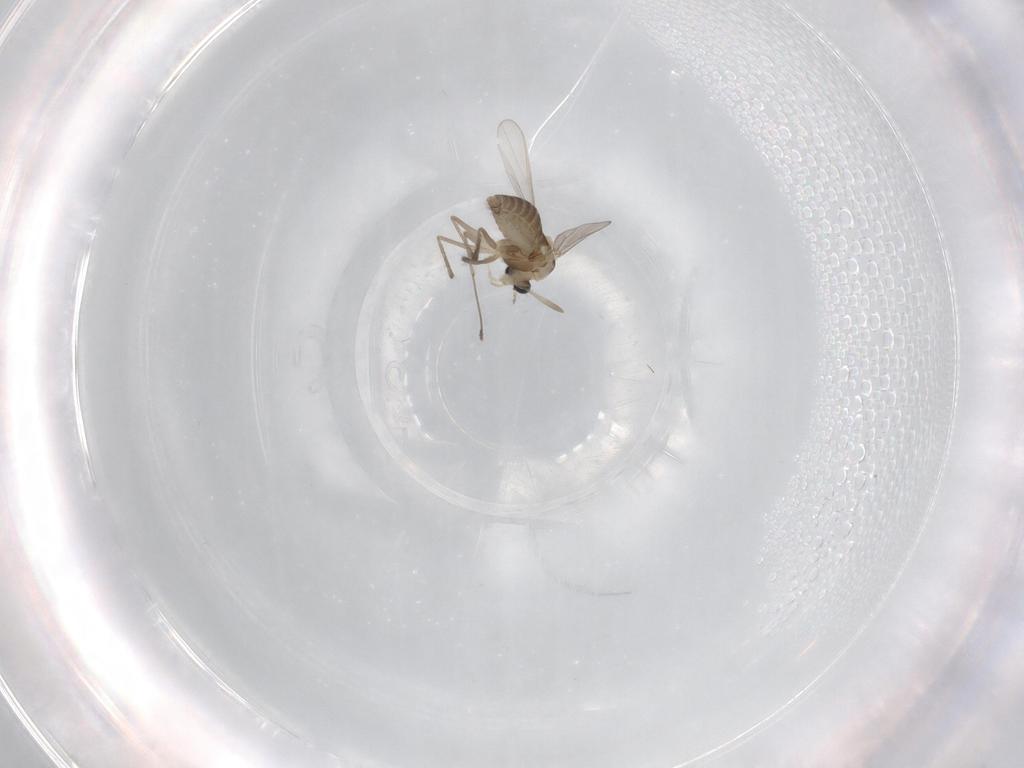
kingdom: Animalia
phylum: Arthropoda
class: Insecta
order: Diptera
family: Chironomidae
